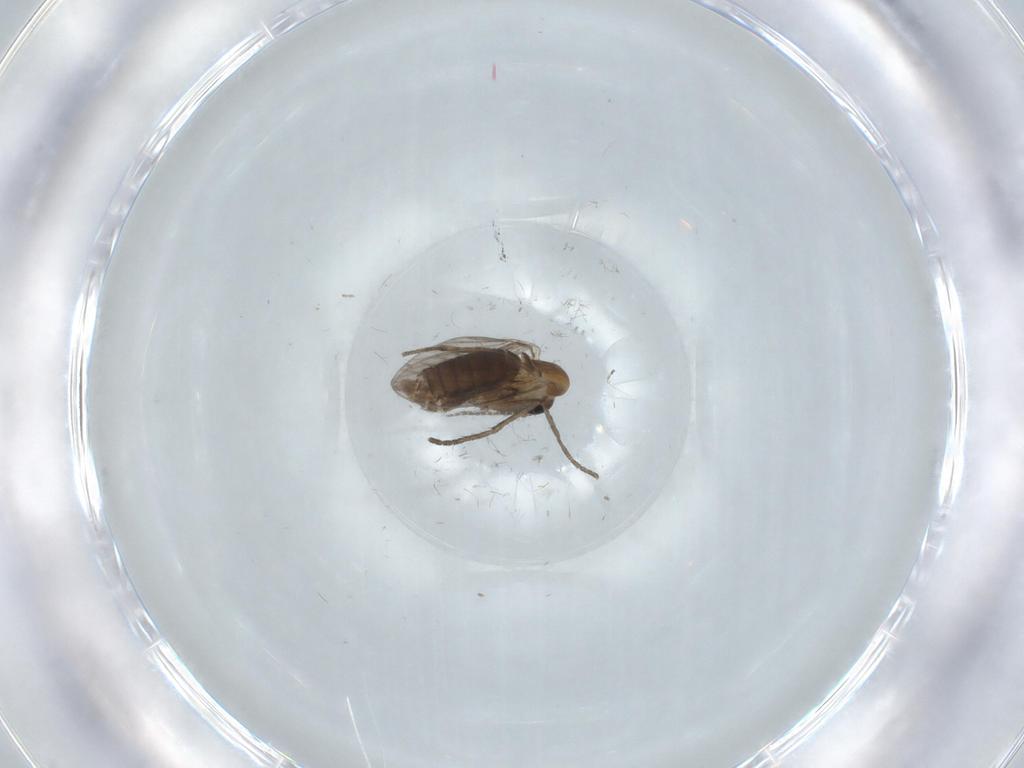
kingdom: Animalia
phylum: Arthropoda
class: Insecta
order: Diptera
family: Psychodidae
